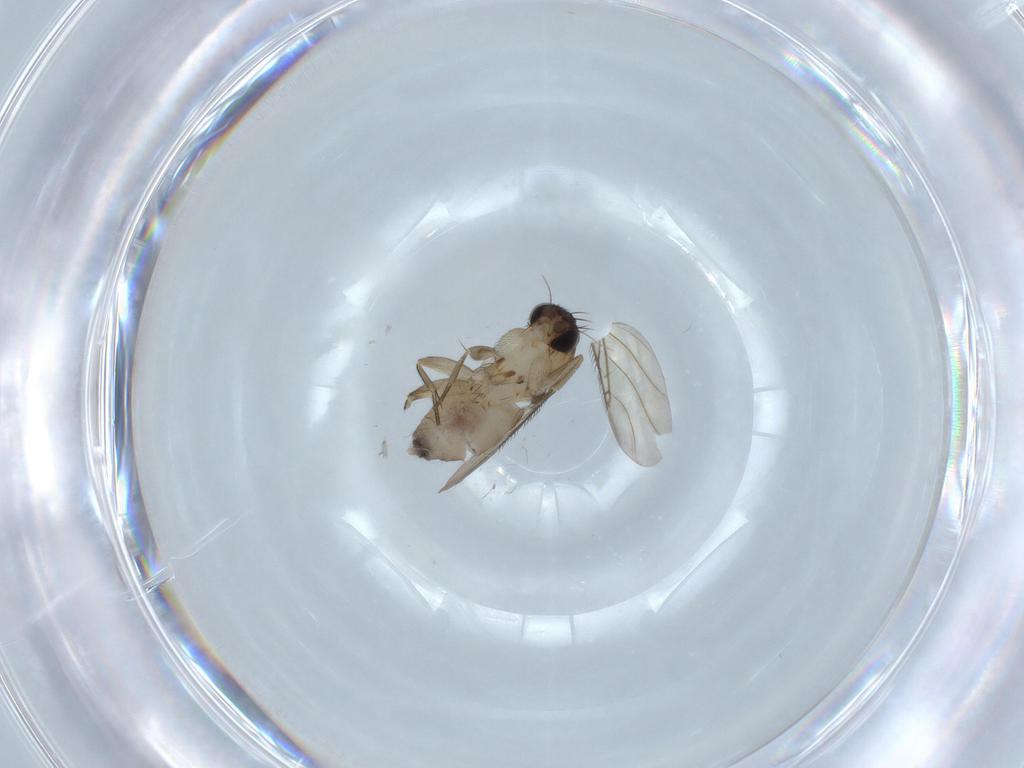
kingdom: Animalia
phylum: Arthropoda
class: Insecta
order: Diptera
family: Phoridae
